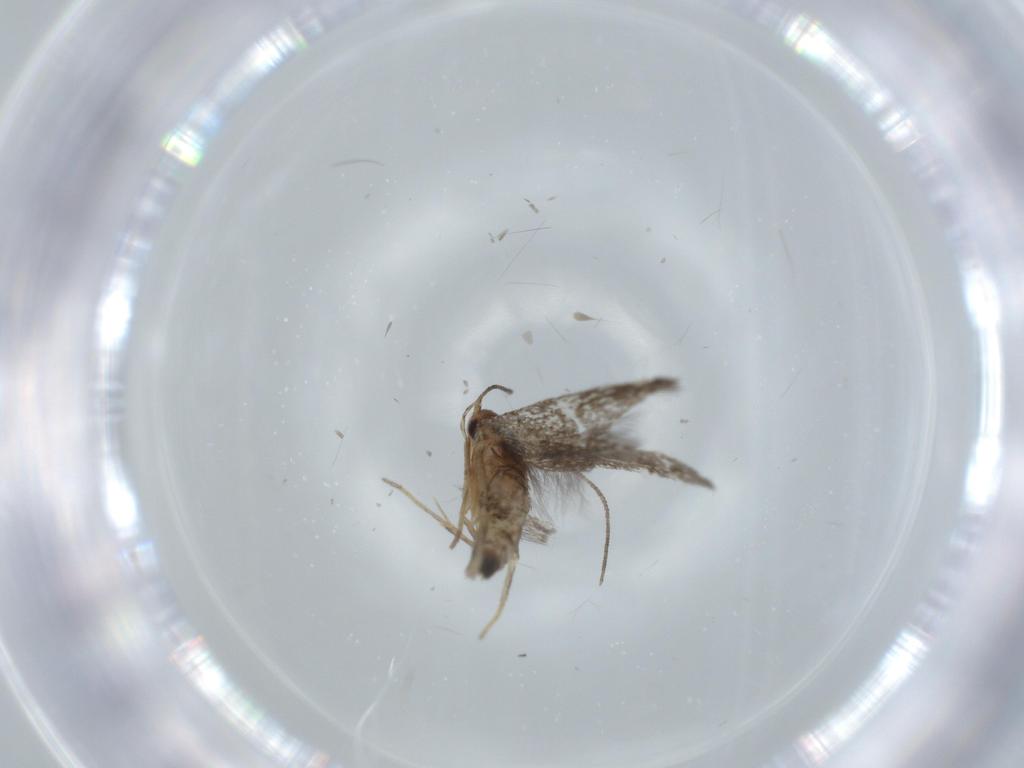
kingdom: Animalia
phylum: Arthropoda
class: Insecta
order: Lepidoptera
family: Cosmopterigidae
